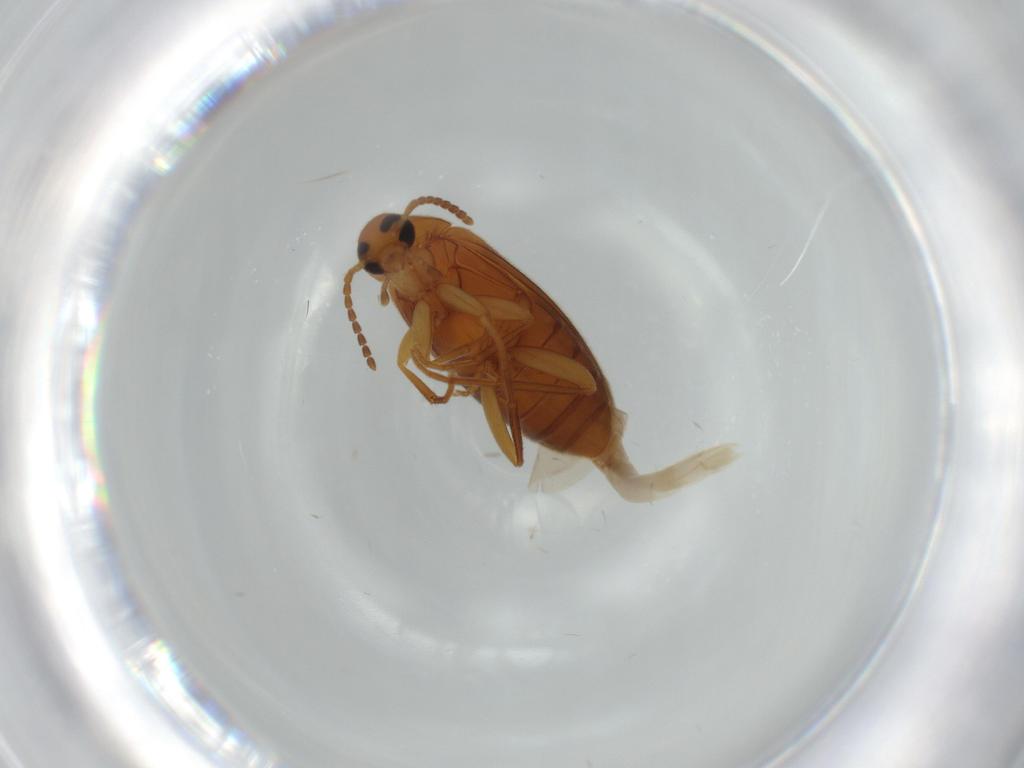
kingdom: Animalia
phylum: Arthropoda
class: Insecta
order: Coleoptera
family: Scraptiidae
